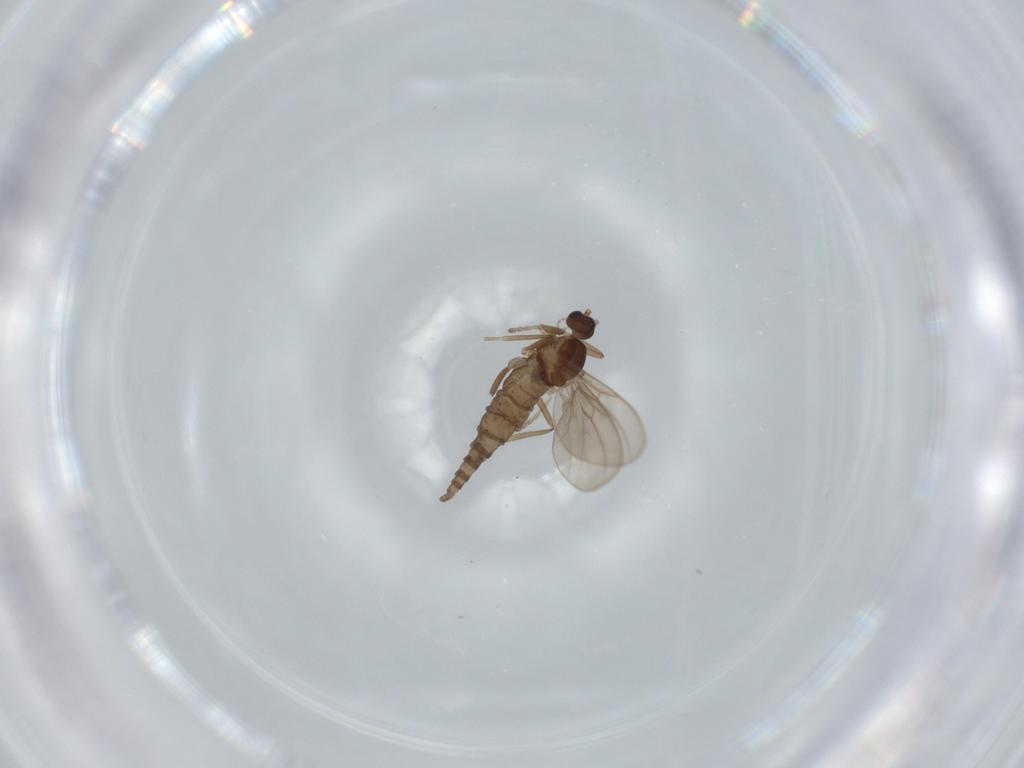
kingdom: Animalia
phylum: Arthropoda
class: Insecta
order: Diptera
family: Cecidomyiidae
